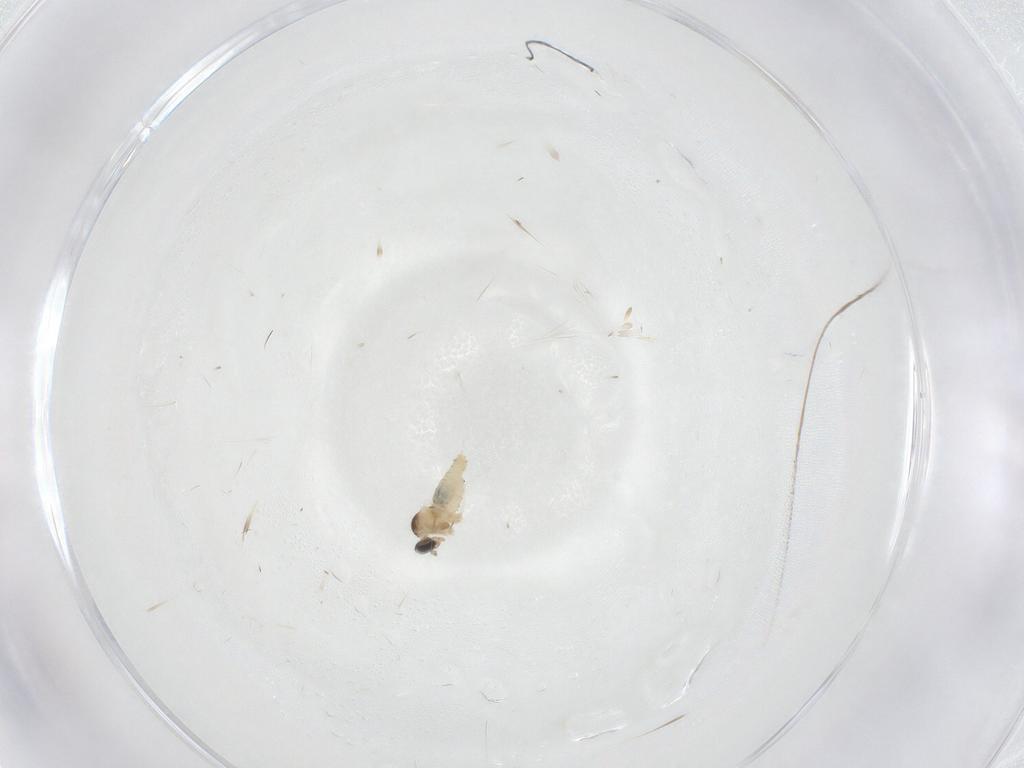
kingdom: Animalia
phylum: Arthropoda
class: Insecta
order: Diptera
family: Cecidomyiidae
